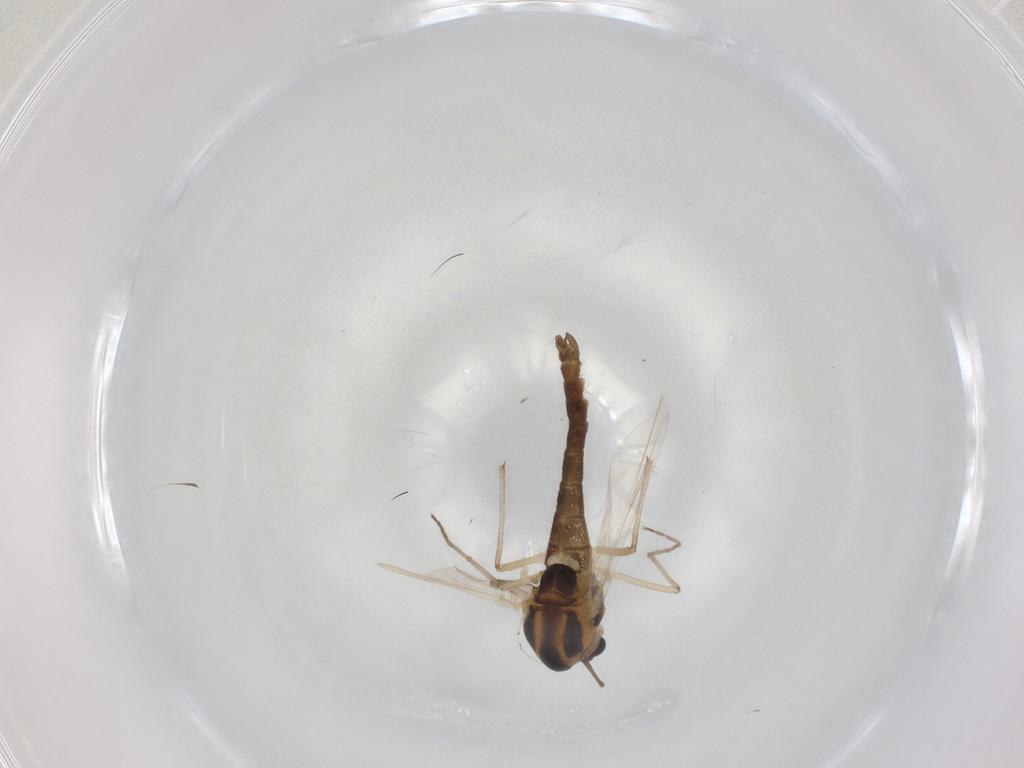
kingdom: Animalia
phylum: Arthropoda
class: Insecta
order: Diptera
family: Chironomidae
